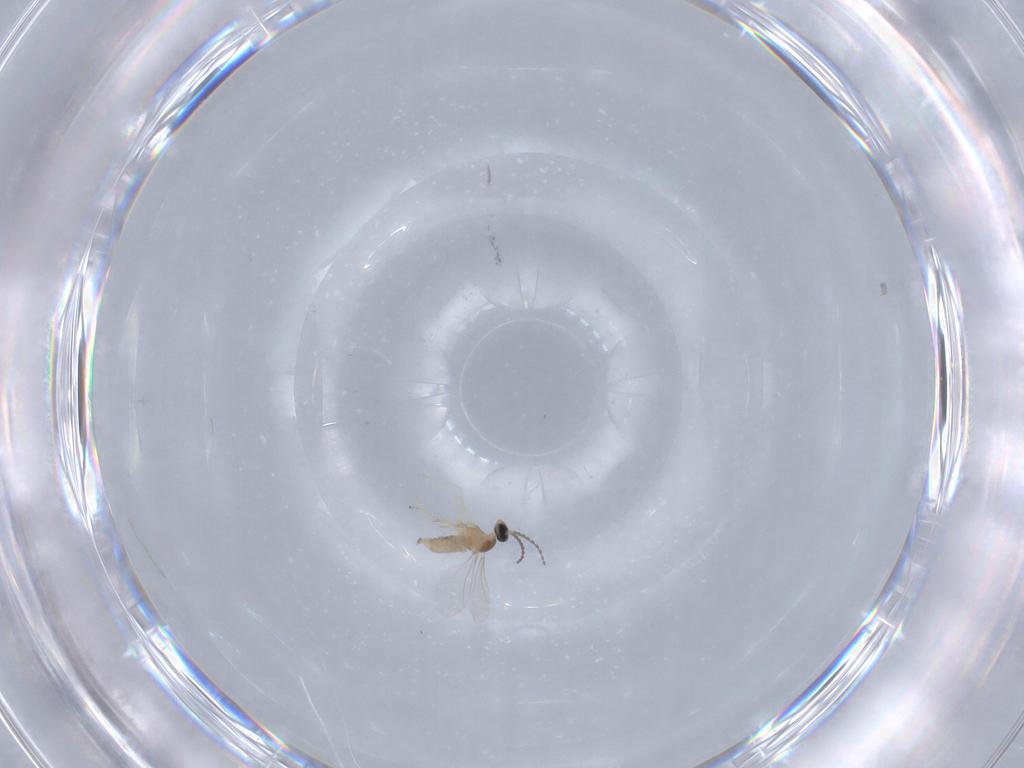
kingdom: Animalia
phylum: Arthropoda
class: Insecta
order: Diptera
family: Cecidomyiidae
